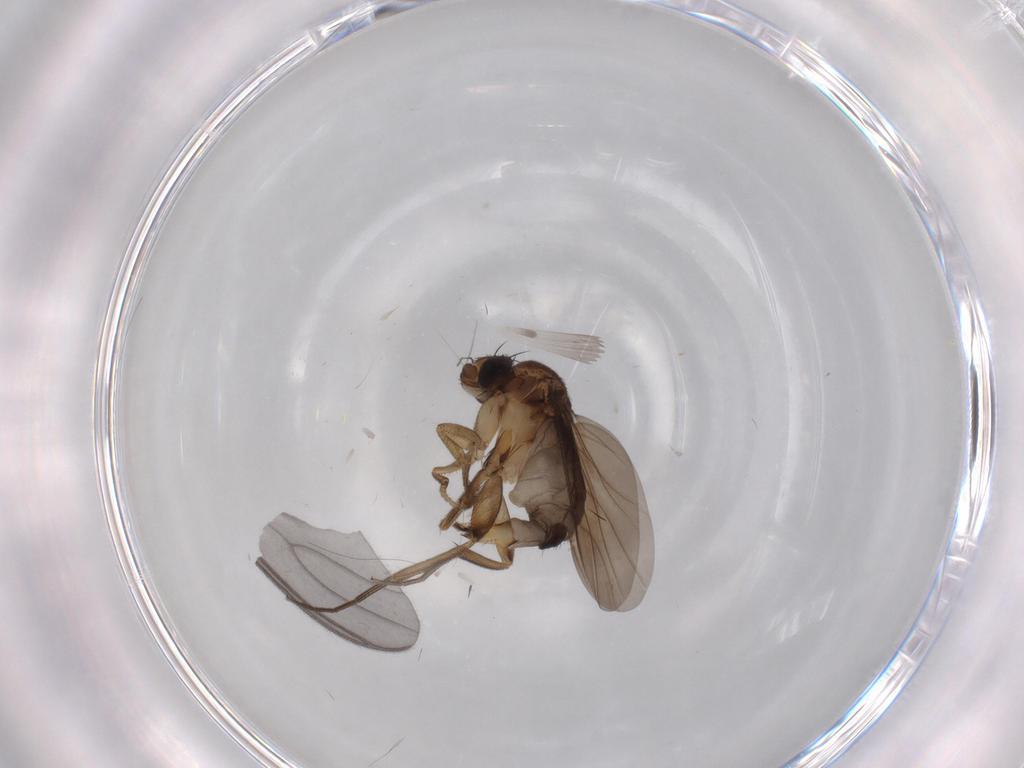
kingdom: Animalia
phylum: Arthropoda
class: Insecta
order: Diptera
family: Phoridae
